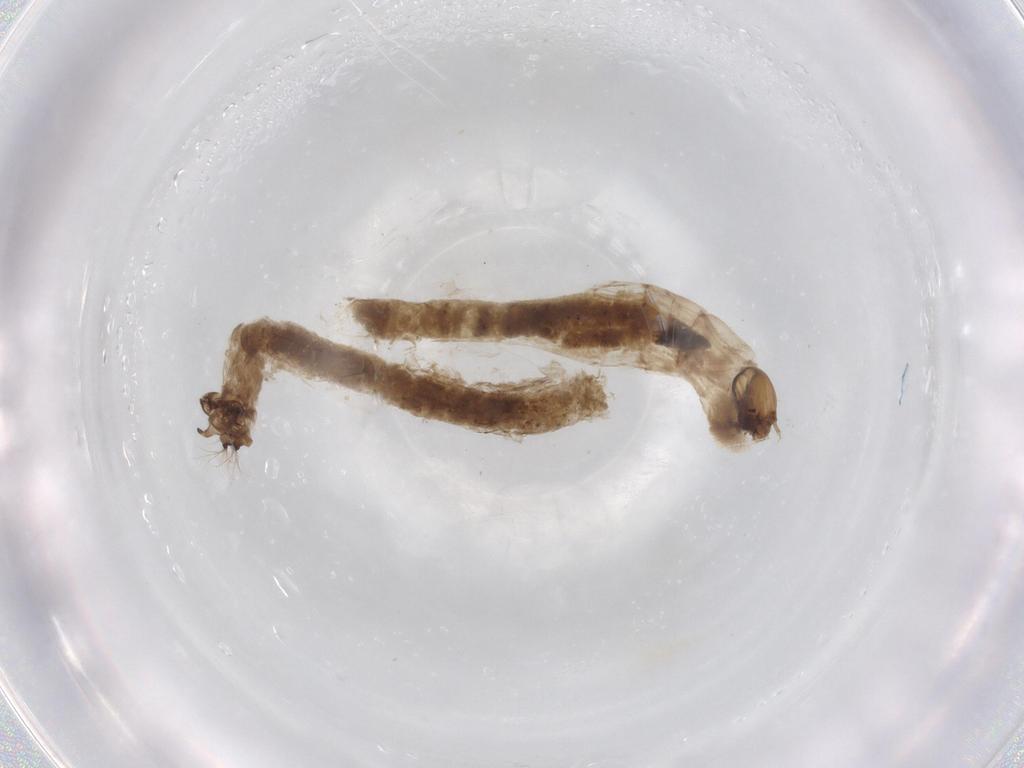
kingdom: Animalia
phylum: Arthropoda
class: Insecta
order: Diptera
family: Chironomidae
